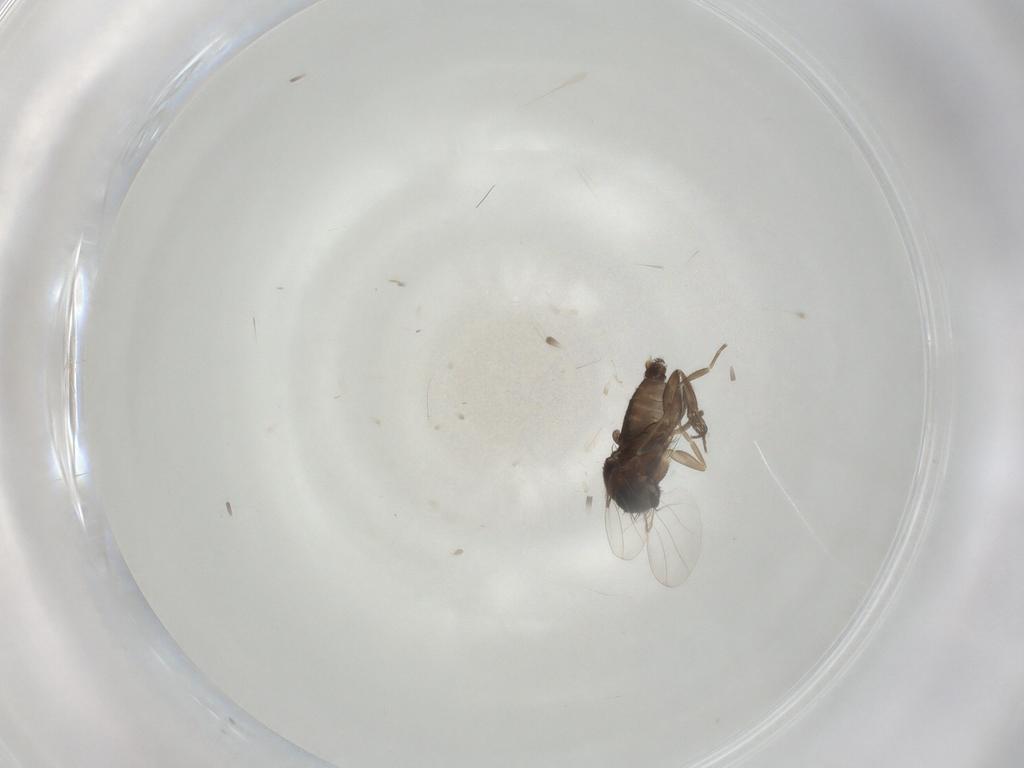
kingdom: Animalia
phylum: Arthropoda
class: Insecta
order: Diptera
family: Phoridae
